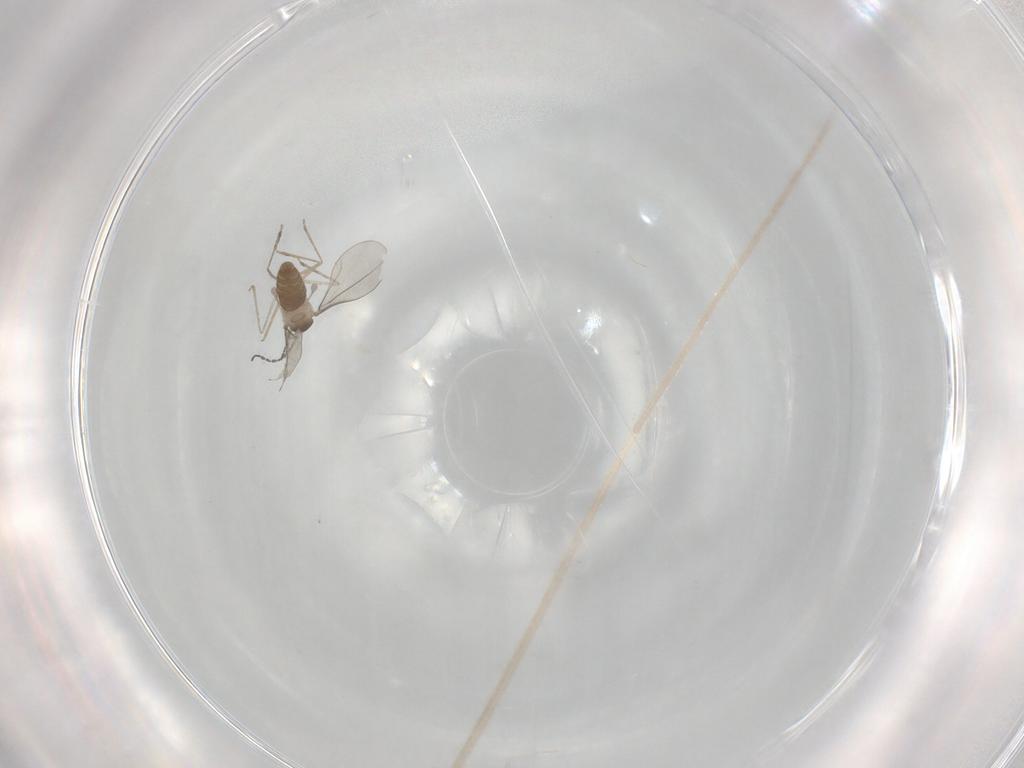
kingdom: Animalia
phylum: Arthropoda
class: Insecta
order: Diptera
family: Cecidomyiidae
